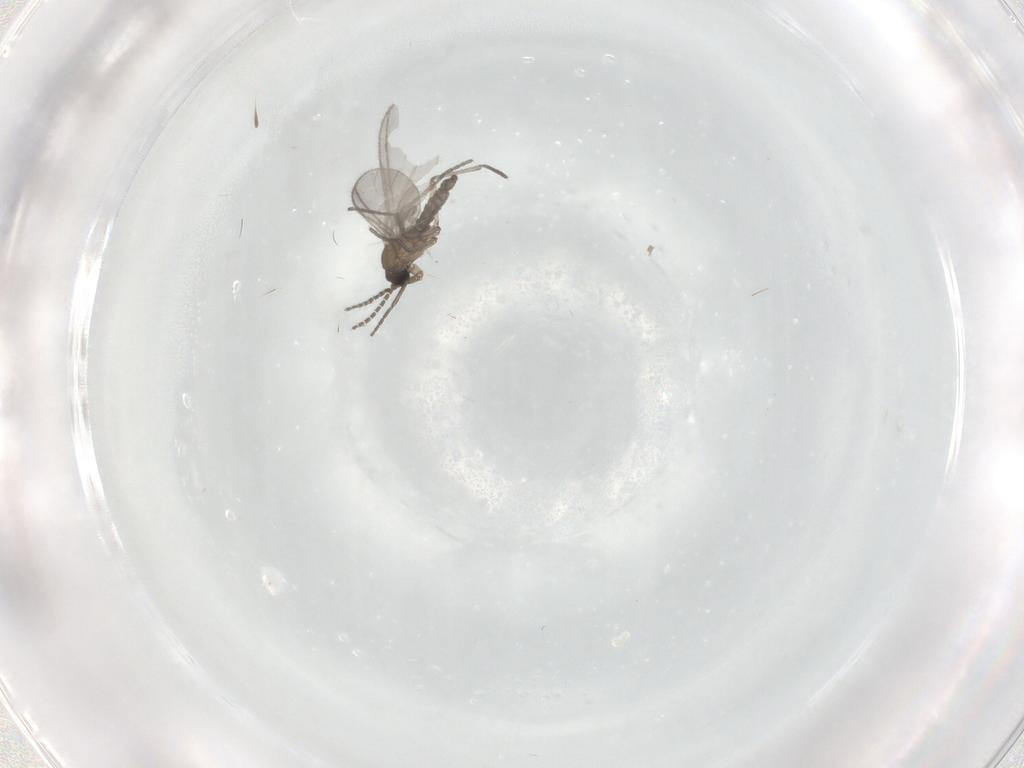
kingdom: Animalia
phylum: Arthropoda
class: Insecta
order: Diptera
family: Sciaridae
